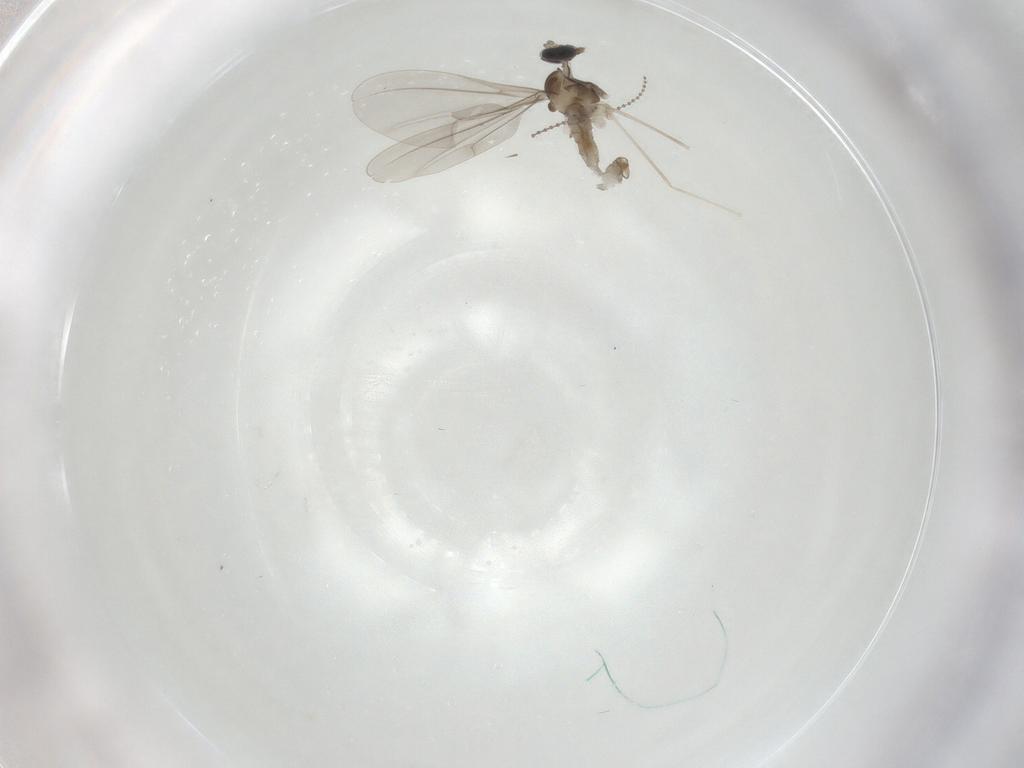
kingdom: Animalia
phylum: Arthropoda
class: Insecta
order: Diptera
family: Cecidomyiidae
